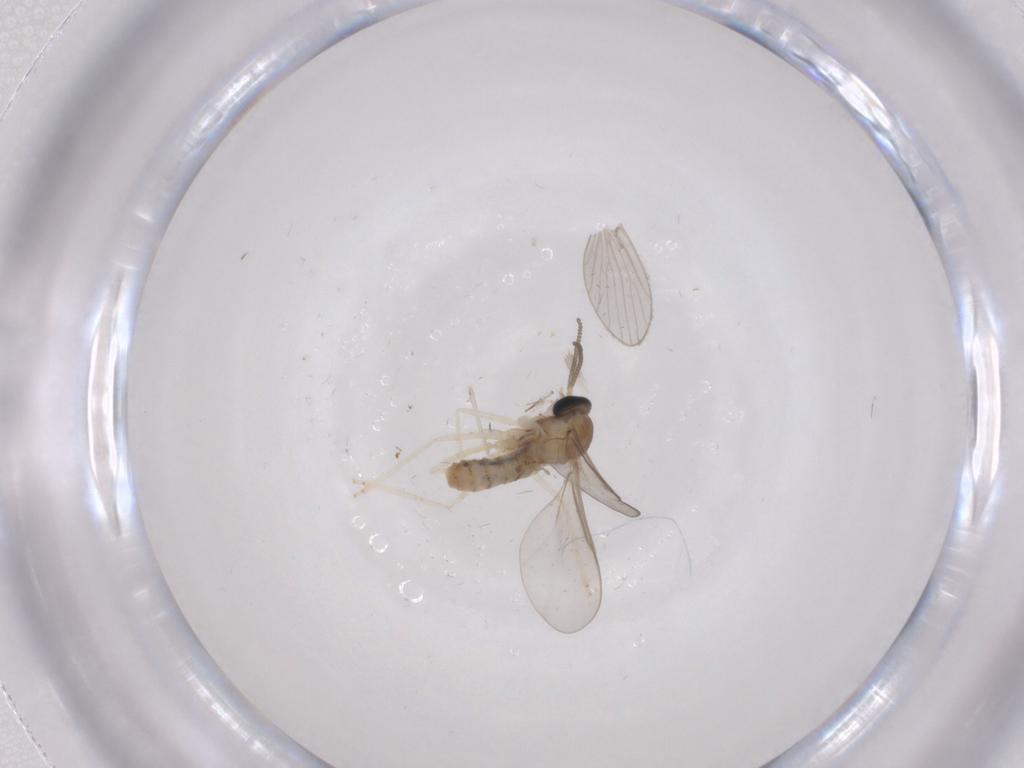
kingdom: Animalia
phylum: Arthropoda
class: Insecta
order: Diptera
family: Cecidomyiidae
